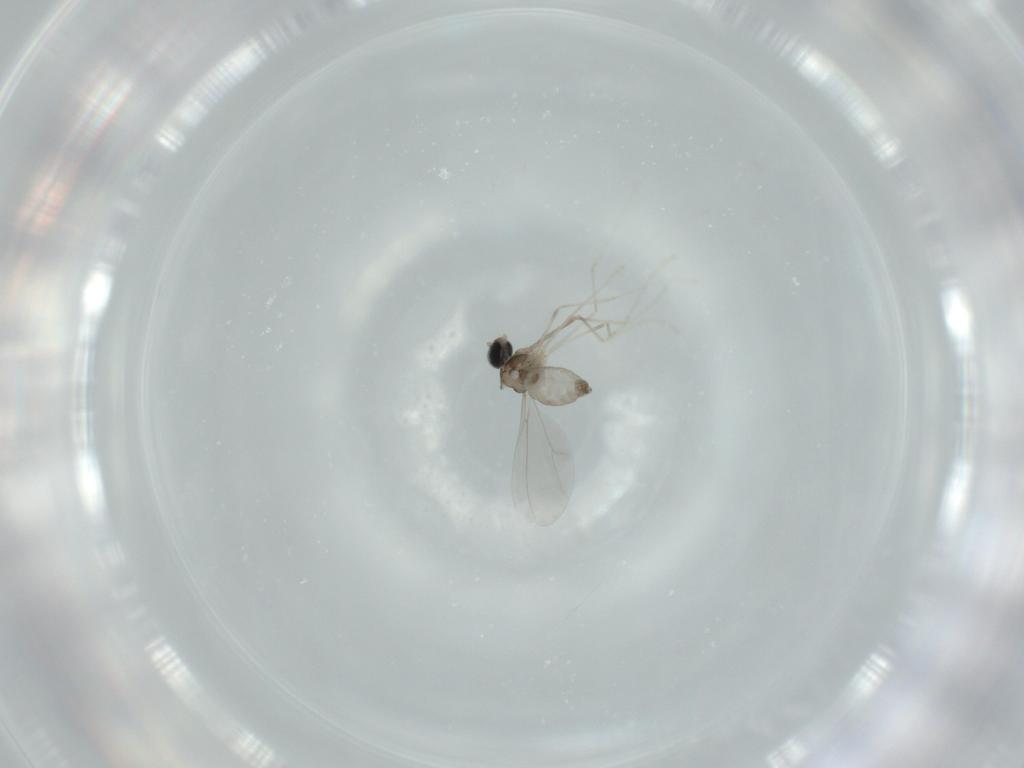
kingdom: Animalia
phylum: Arthropoda
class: Insecta
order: Diptera
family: Cecidomyiidae
